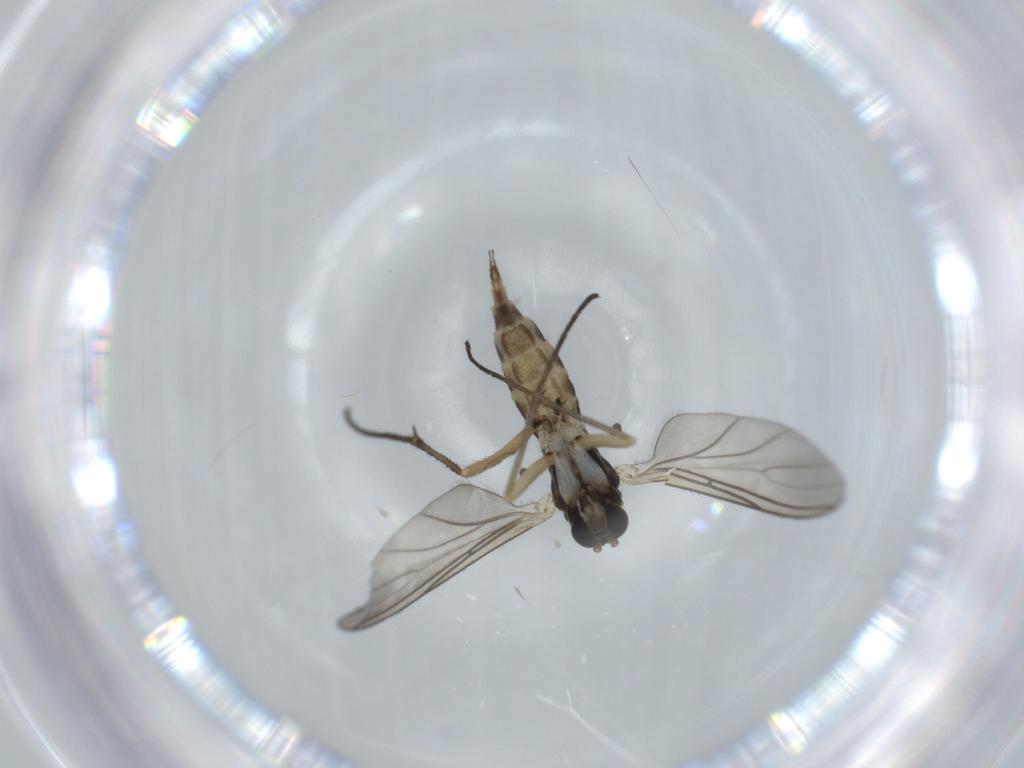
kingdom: Animalia
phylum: Arthropoda
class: Insecta
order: Diptera
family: Sciaridae
